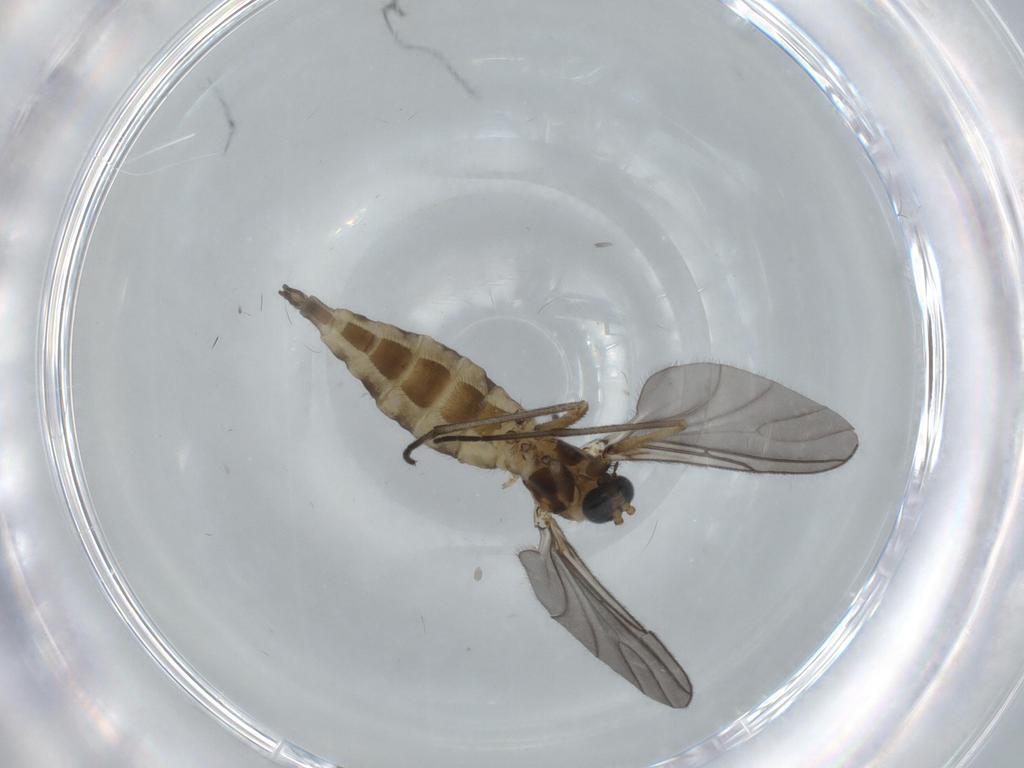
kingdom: Animalia
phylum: Arthropoda
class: Insecta
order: Diptera
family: Sciaridae
